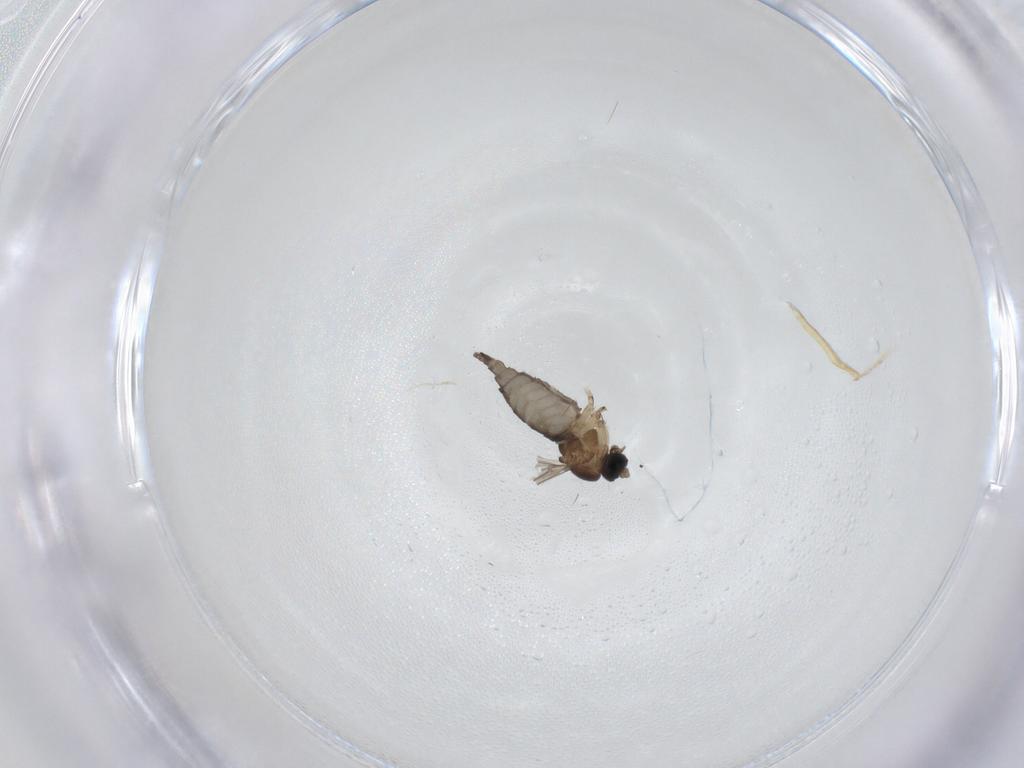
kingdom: Animalia
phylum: Arthropoda
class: Insecta
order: Diptera
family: Sciaridae
